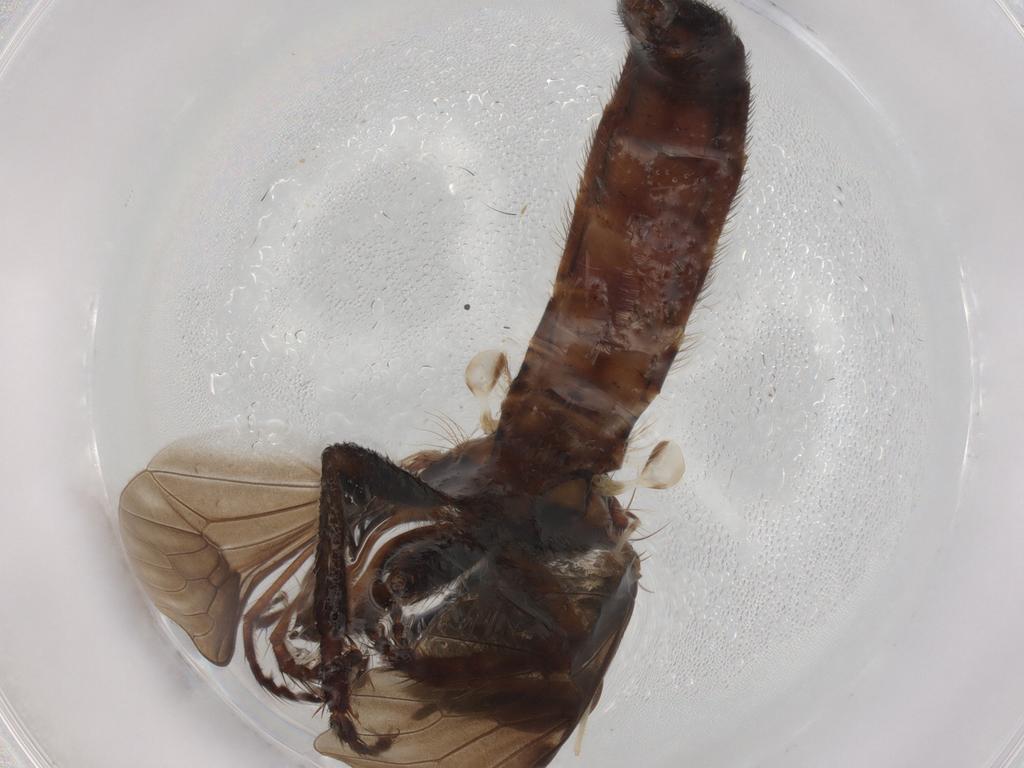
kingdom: Animalia
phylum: Arthropoda
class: Insecta
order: Diptera
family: Asilidae
